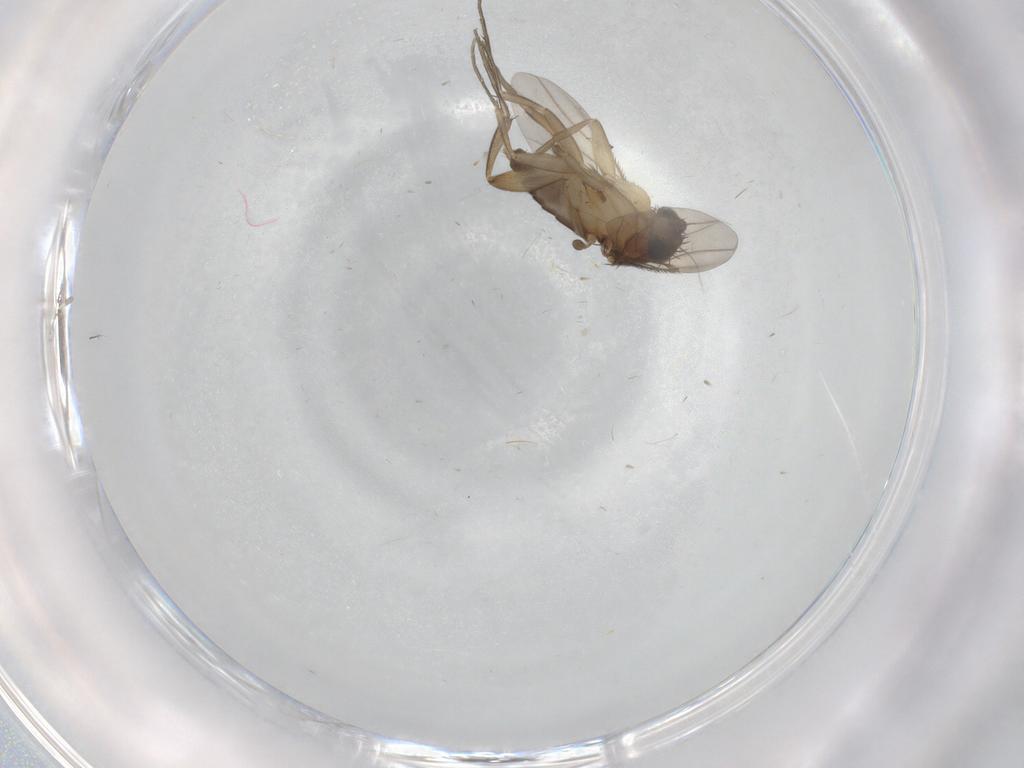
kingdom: Animalia
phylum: Arthropoda
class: Insecta
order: Diptera
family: Phoridae
